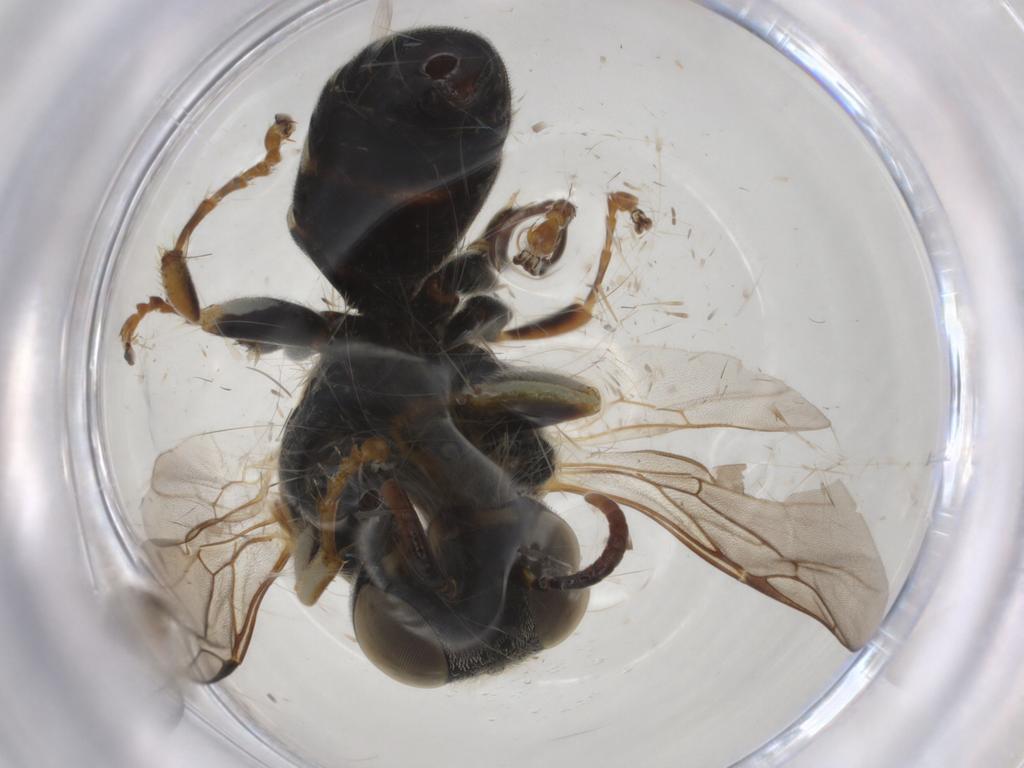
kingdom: Animalia
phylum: Arthropoda
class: Insecta
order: Hymenoptera
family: Crabronidae
